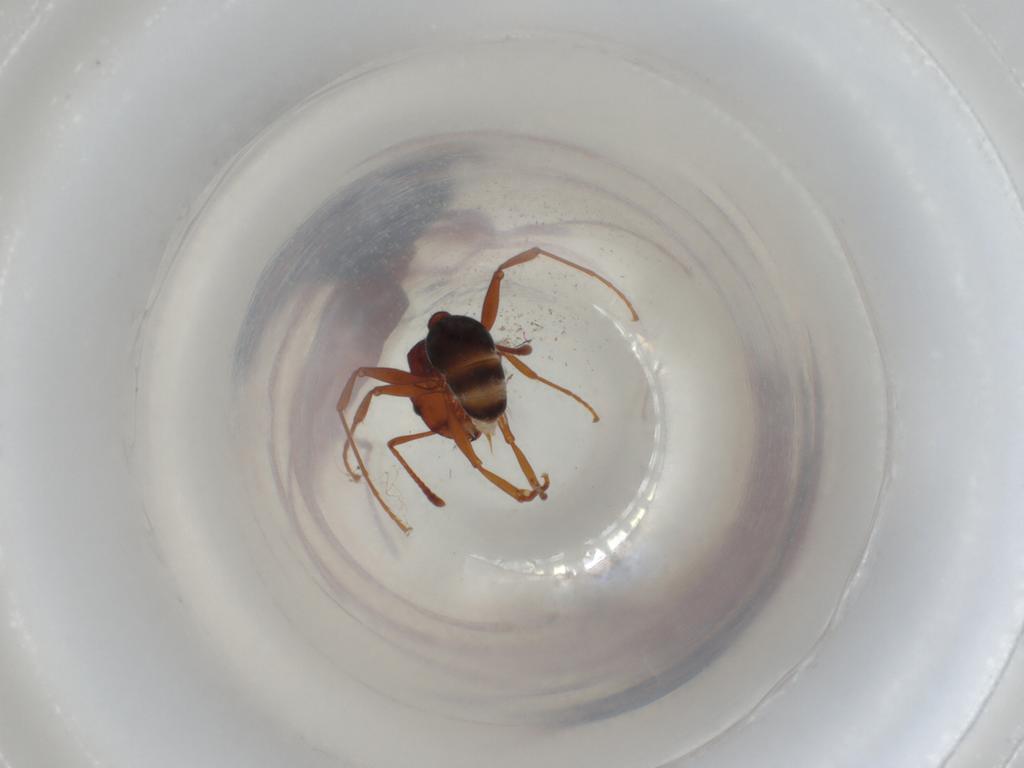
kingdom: Animalia
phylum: Arthropoda
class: Insecta
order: Hymenoptera
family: Formicidae
